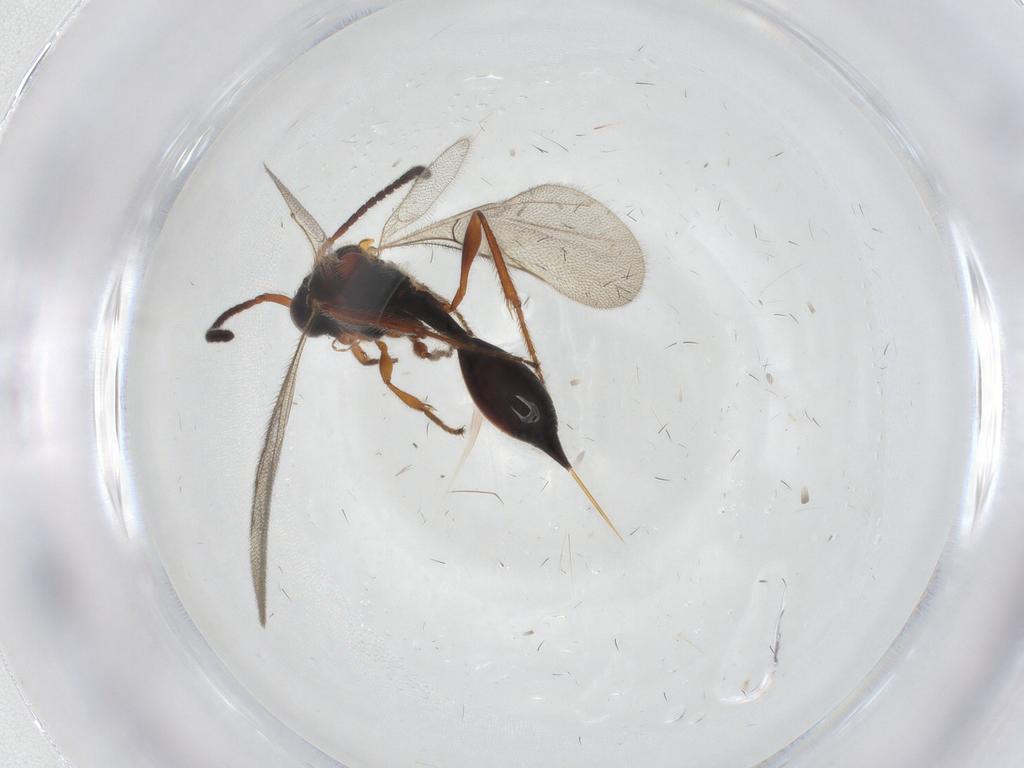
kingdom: Animalia
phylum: Arthropoda
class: Insecta
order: Hymenoptera
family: Diapriidae
